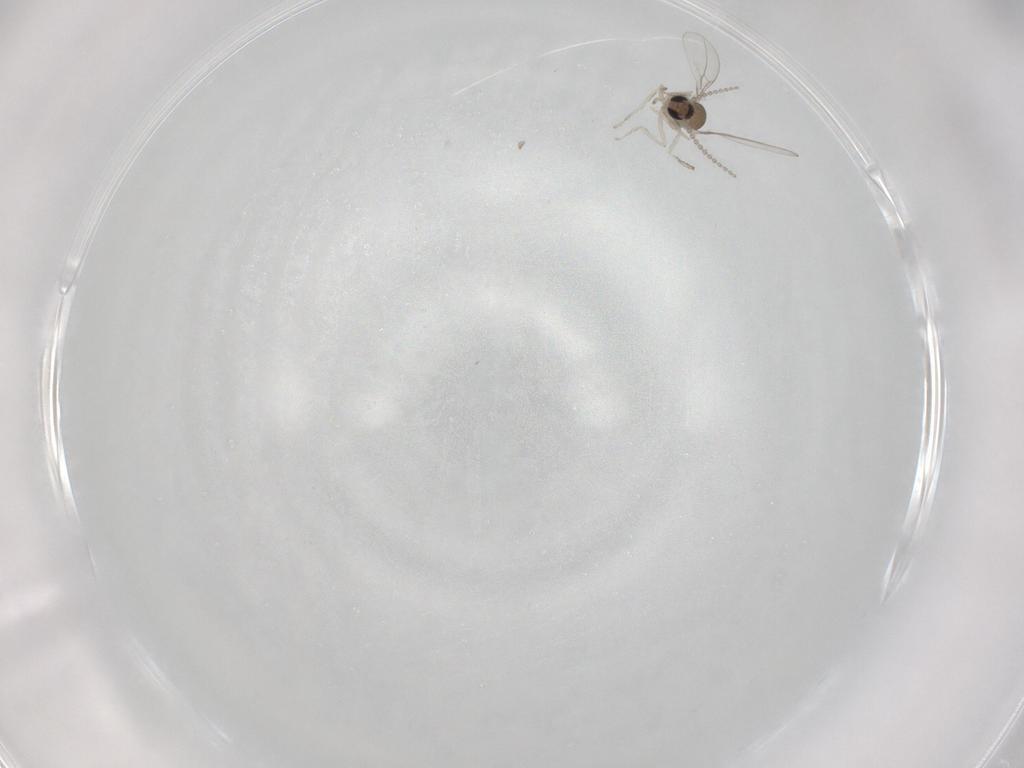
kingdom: Animalia
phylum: Arthropoda
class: Insecta
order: Diptera
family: Cecidomyiidae
